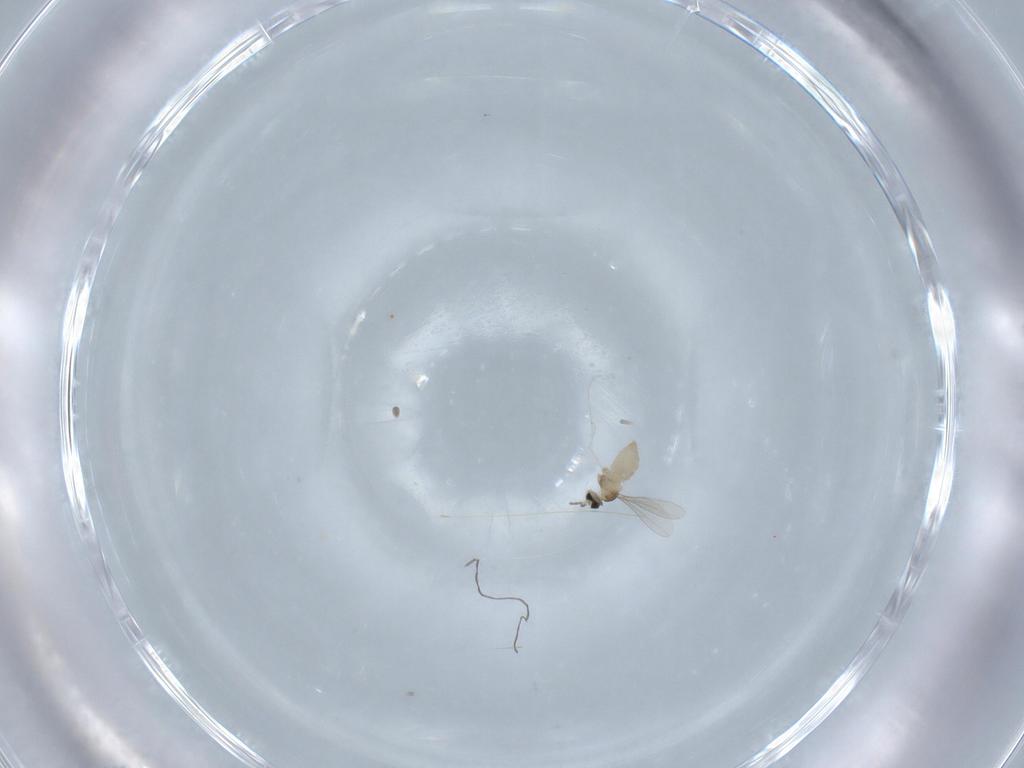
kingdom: Animalia
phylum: Arthropoda
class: Insecta
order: Diptera
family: Cecidomyiidae
